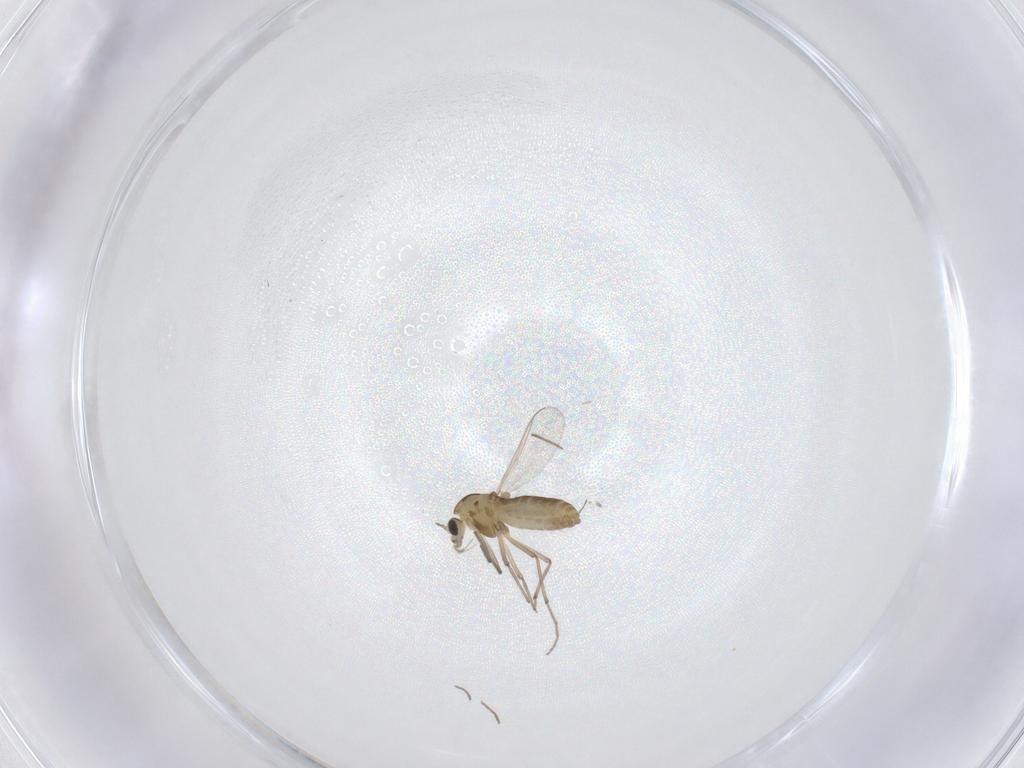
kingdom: Animalia
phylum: Arthropoda
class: Insecta
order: Diptera
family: Chironomidae
